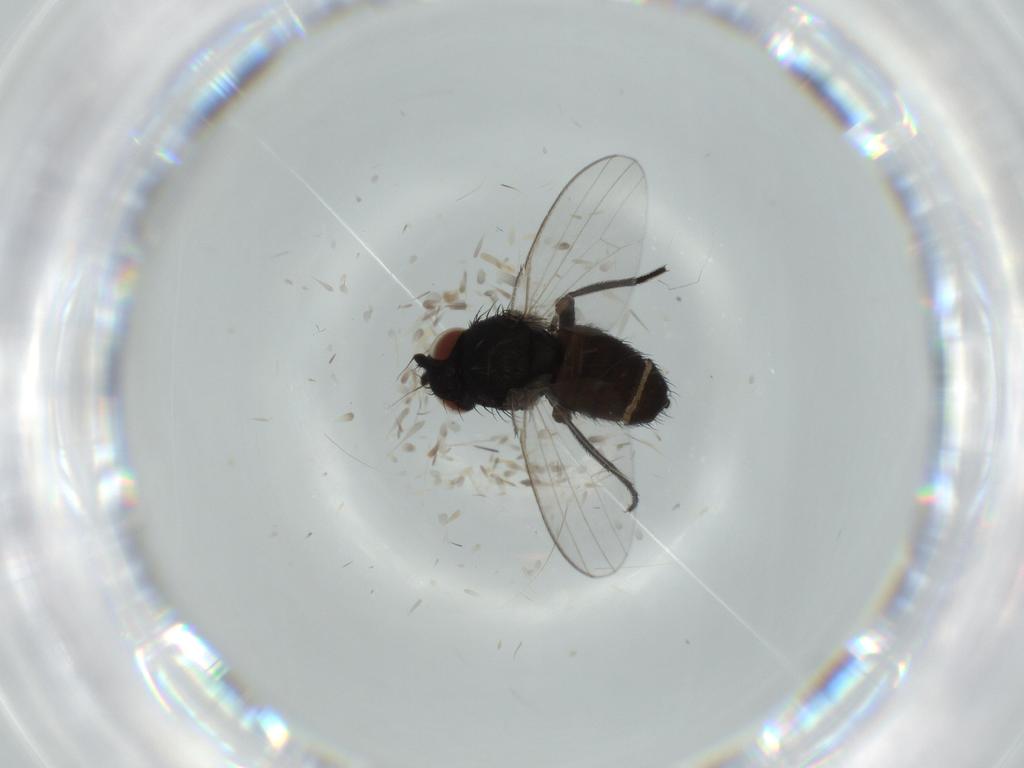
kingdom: Animalia
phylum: Arthropoda
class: Insecta
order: Diptera
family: Milichiidae
